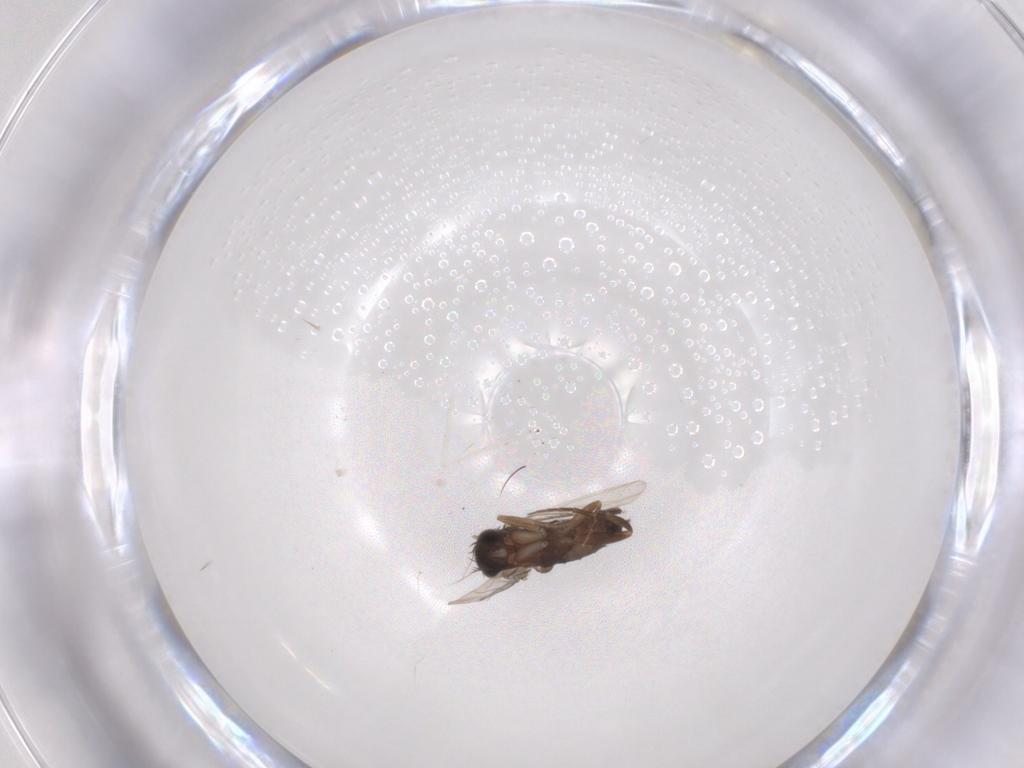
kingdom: Animalia
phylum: Arthropoda
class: Insecta
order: Diptera
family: Phoridae
